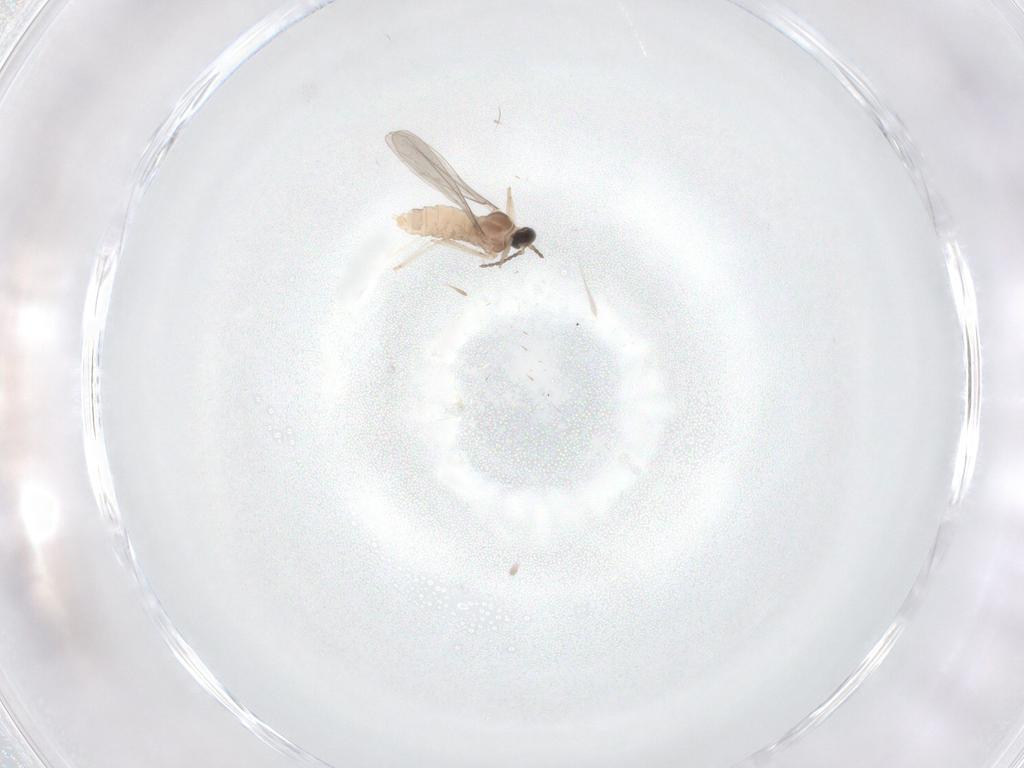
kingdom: Animalia
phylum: Arthropoda
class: Insecta
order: Diptera
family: Cecidomyiidae
